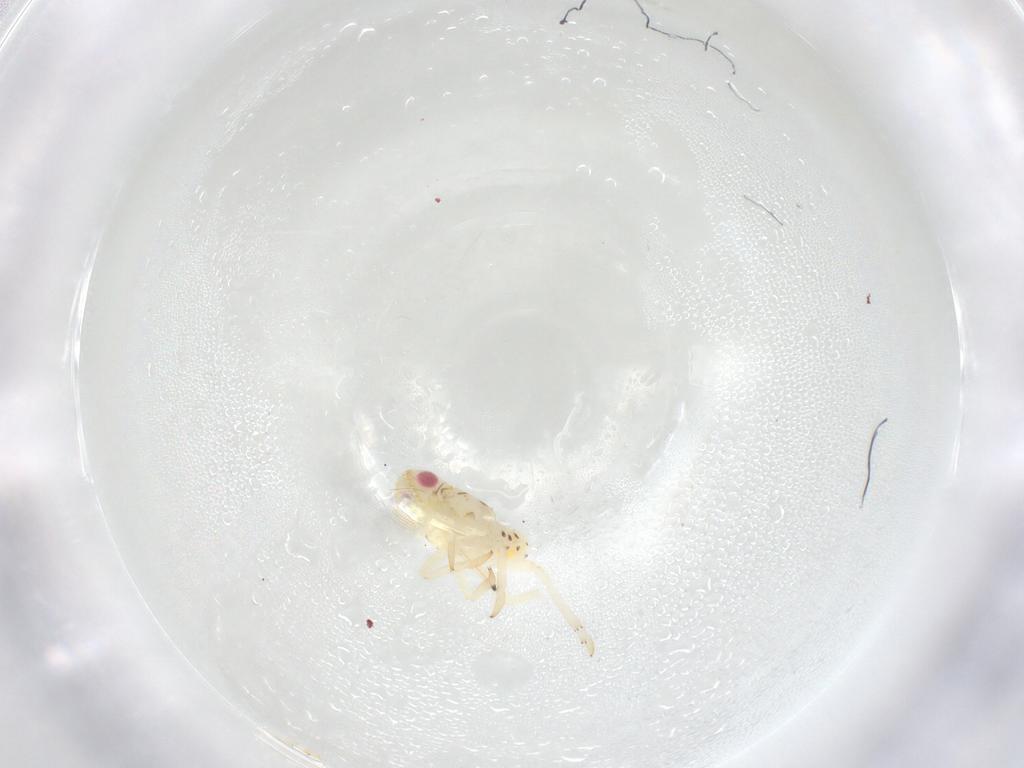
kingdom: Animalia
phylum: Arthropoda
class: Insecta
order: Hemiptera
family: Tropiduchidae
